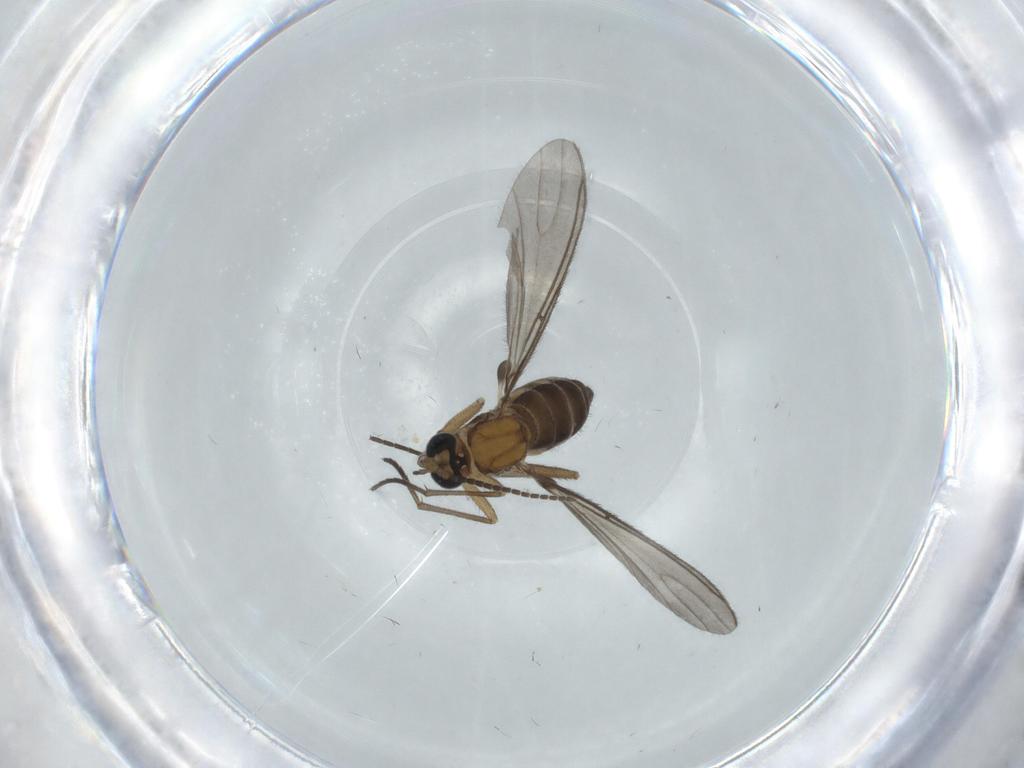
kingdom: Animalia
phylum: Arthropoda
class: Insecta
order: Diptera
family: Sciaridae
